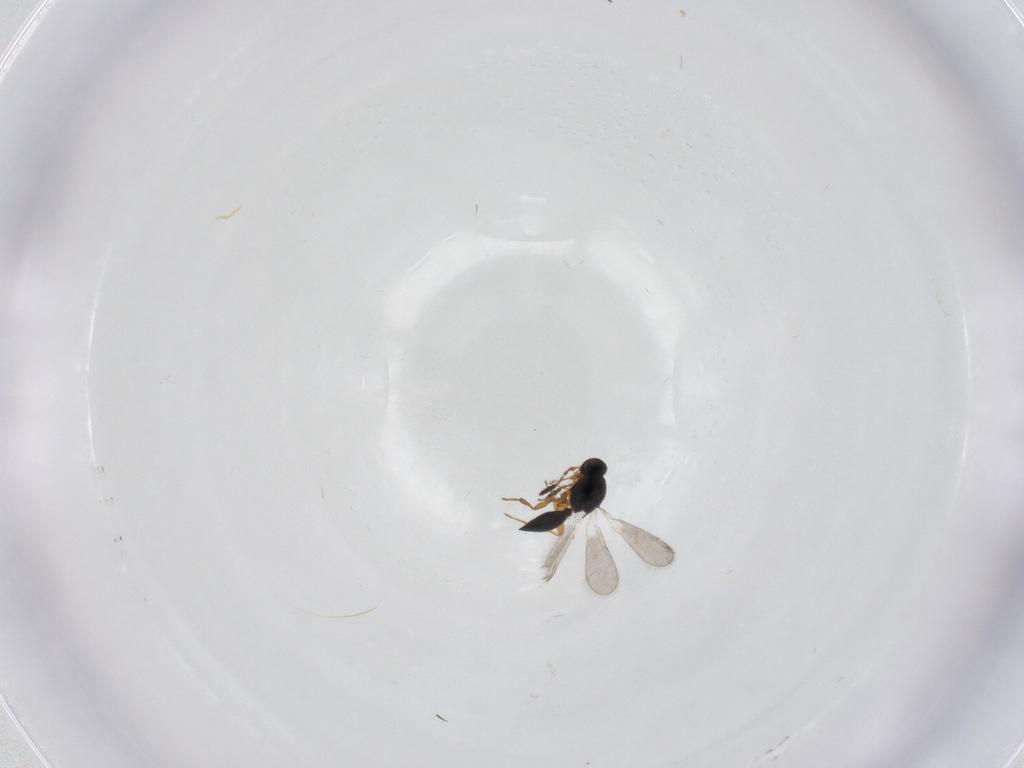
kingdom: Animalia
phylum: Arthropoda
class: Insecta
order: Hymenoptera
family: Platygastridae
